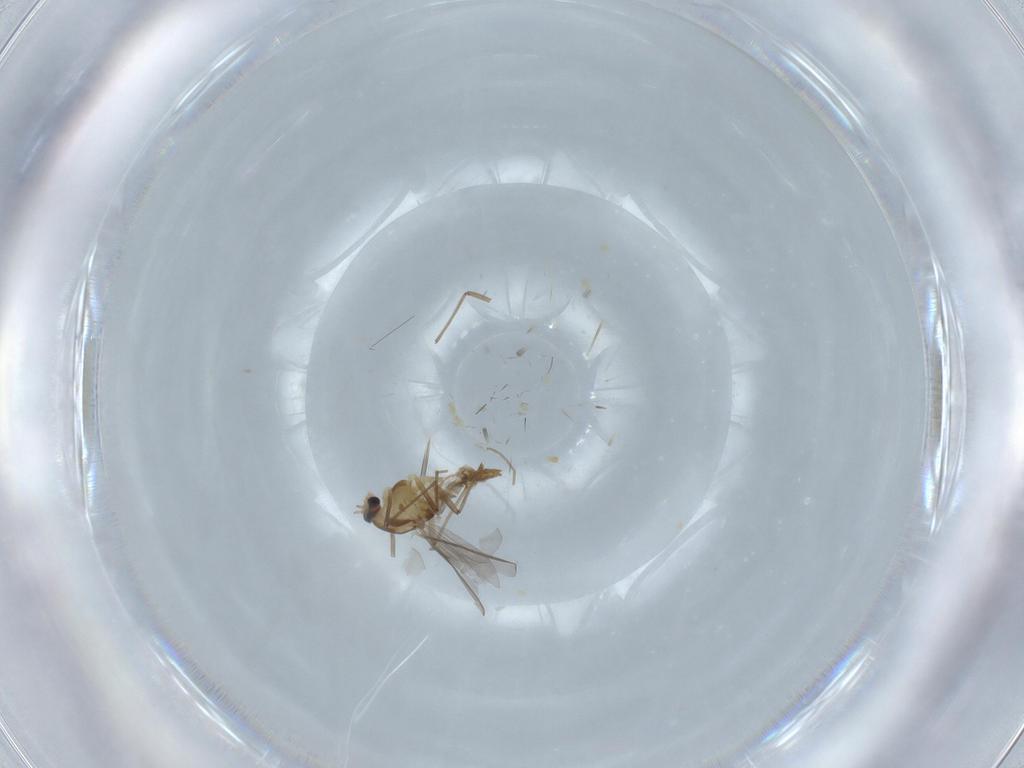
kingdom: Animalia
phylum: Arthropoda
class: Insecta
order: Diptera
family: Chironomidae
